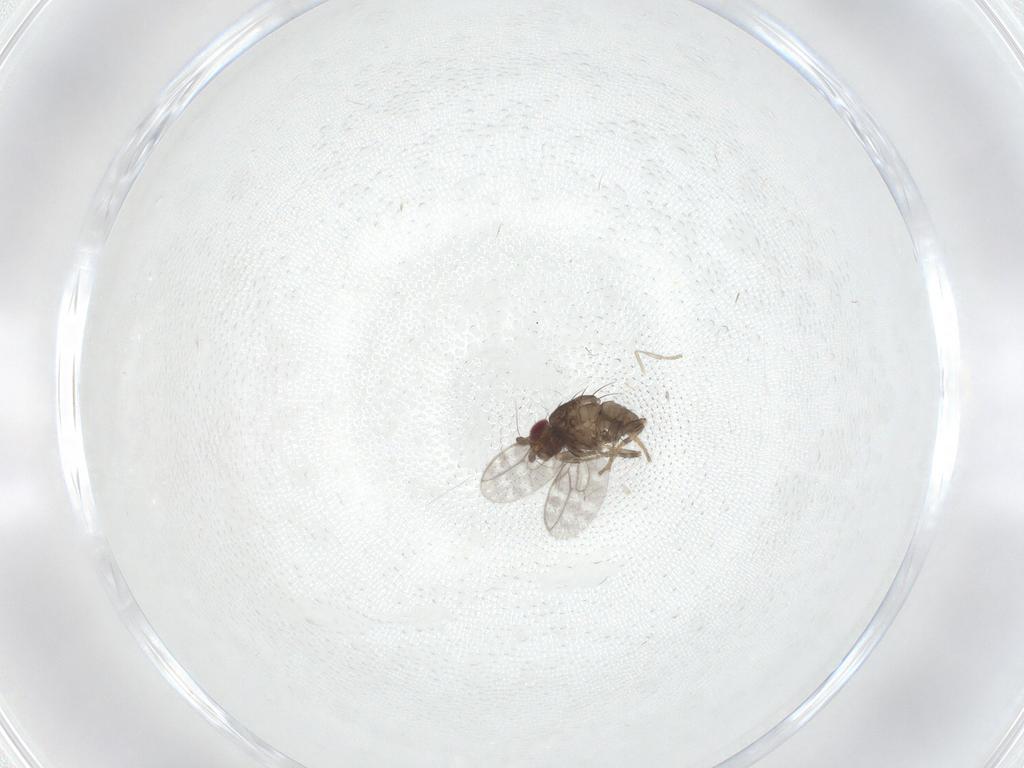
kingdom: Animalia
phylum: Arthropoda
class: Insecta
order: Diptera
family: Sphaeroceridae
